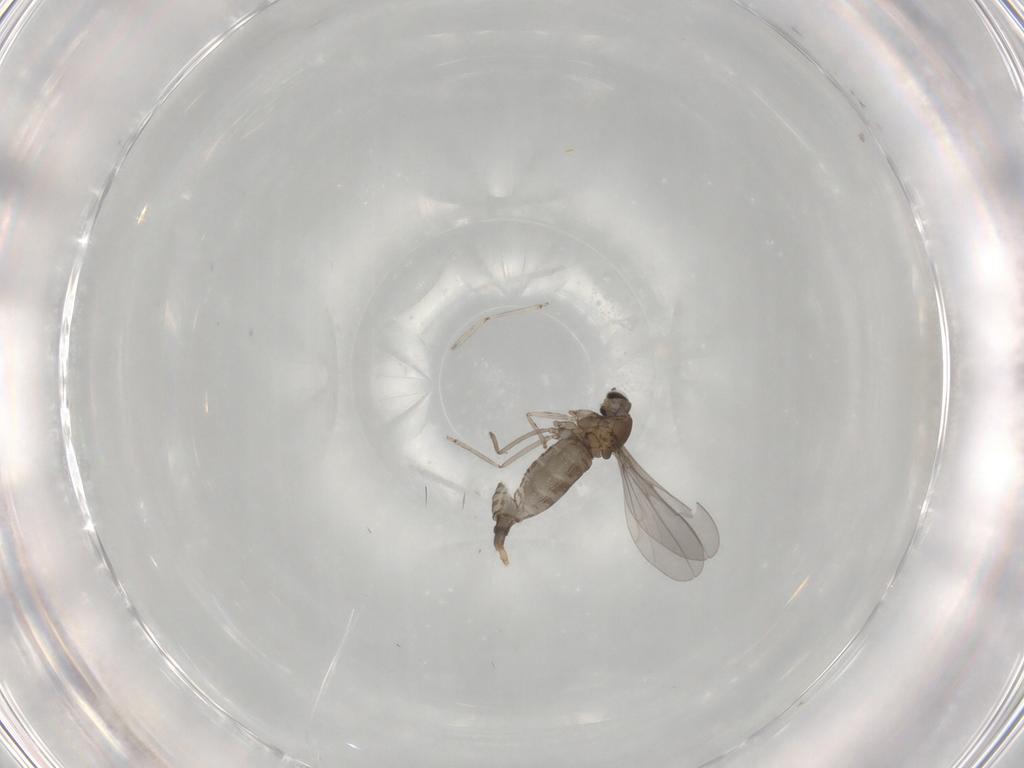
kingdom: Animalia
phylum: Arthropoda
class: Insecta
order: Diptera
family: Cecidomyiidae
